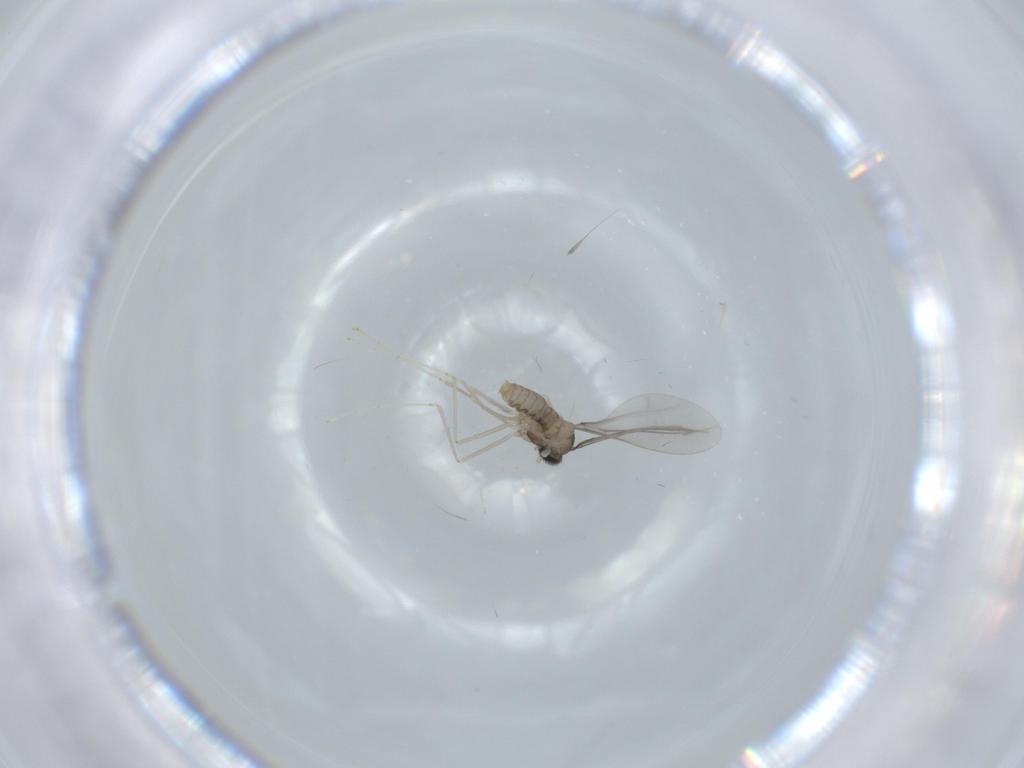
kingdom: Animalia
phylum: Arthropoda
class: Insecta
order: Diptera
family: Cecidomyiidae
